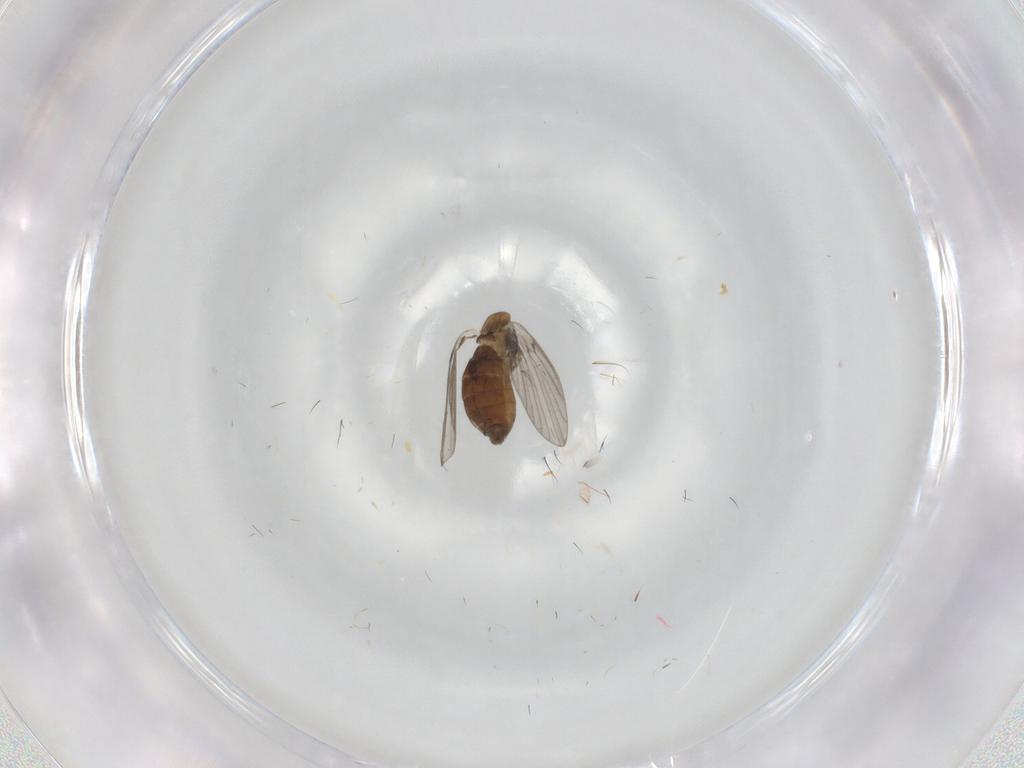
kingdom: Animalia
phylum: Arthropoda
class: Insecta
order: Diptera
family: Psychodidae
